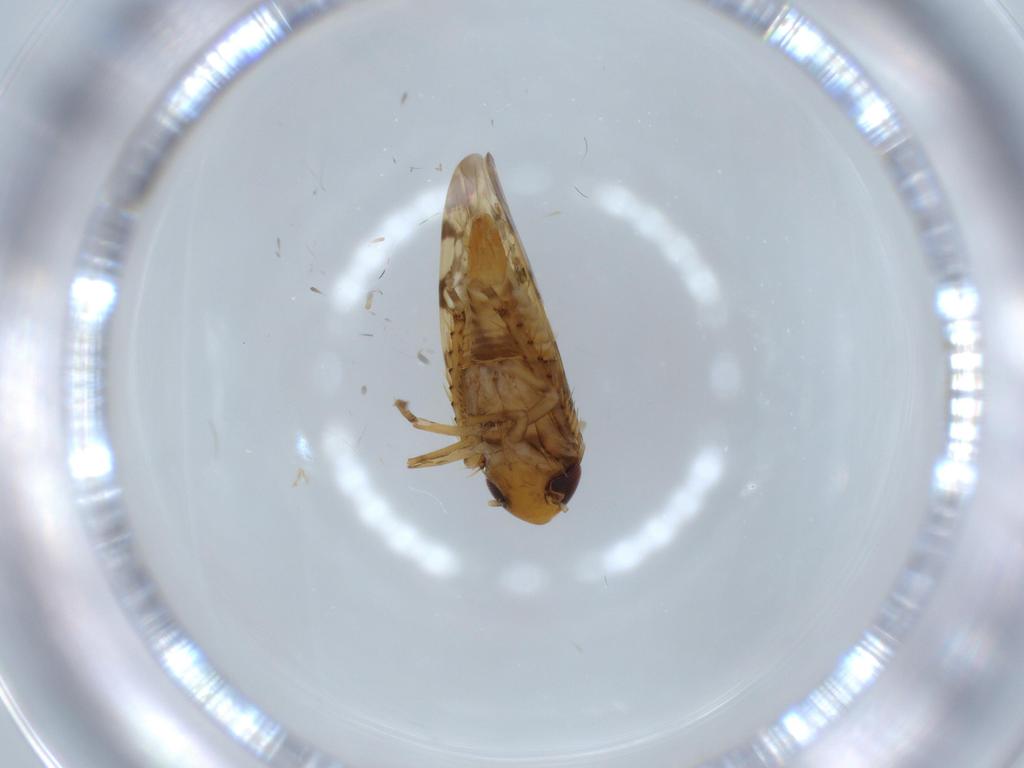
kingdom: Animalia
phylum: Arthropoda
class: Insecta
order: Hemiptera
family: Cicadellidae
